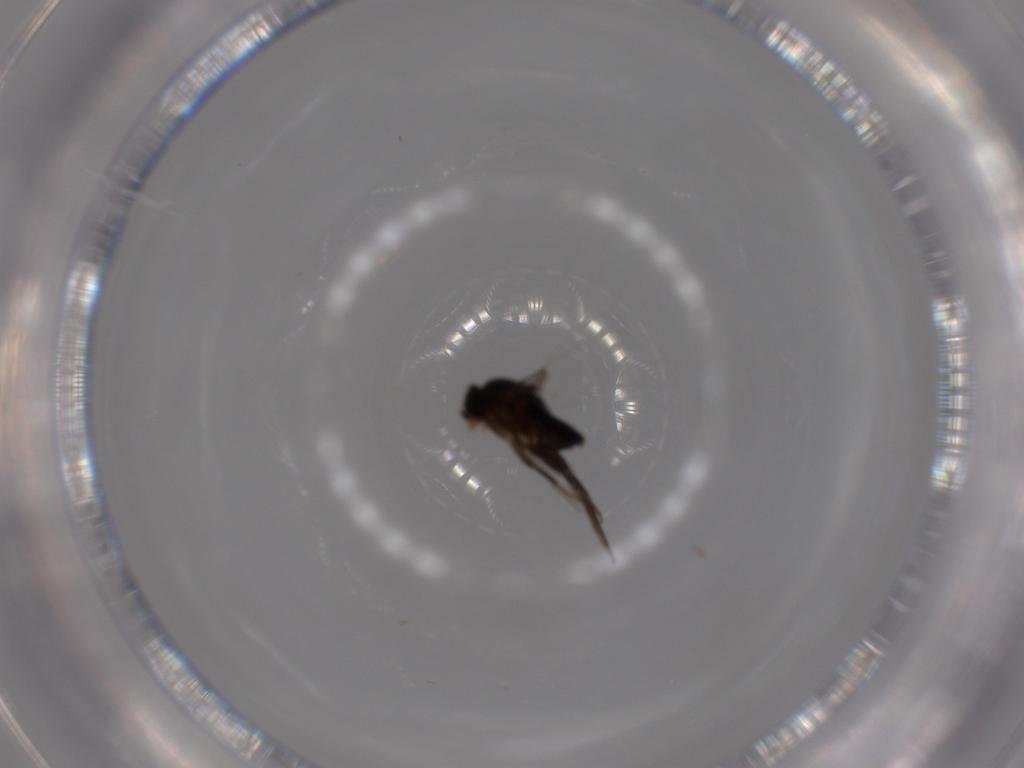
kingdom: Animalia
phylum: Arthropoda
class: Insecta
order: Diptera
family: Phoridae
